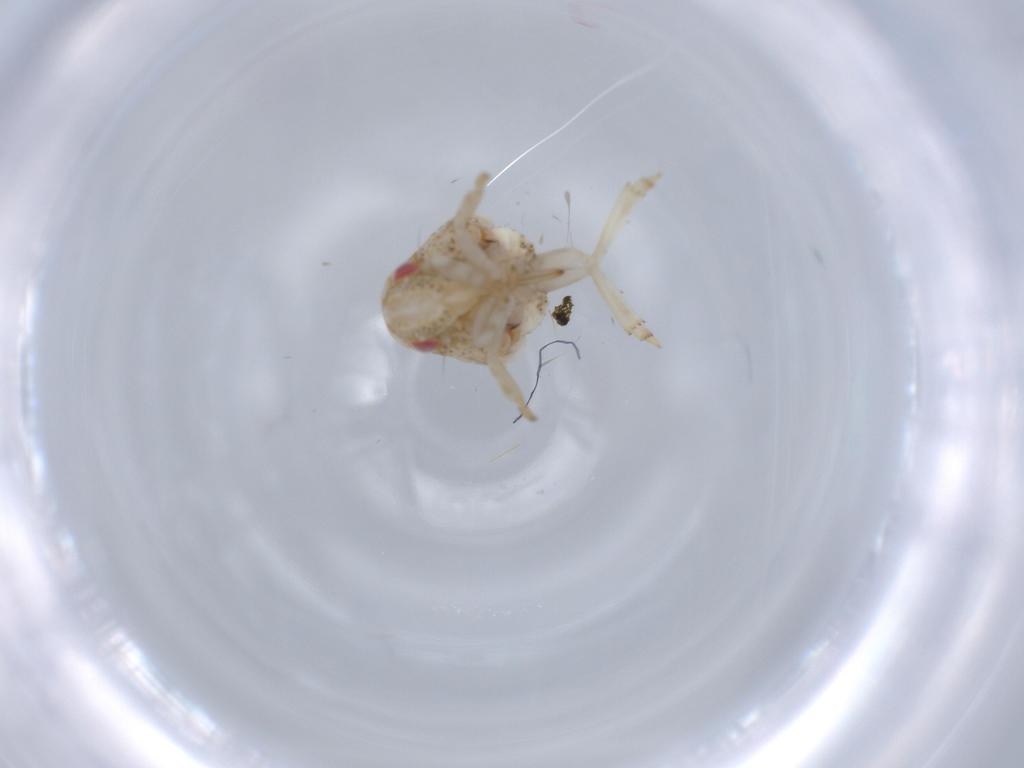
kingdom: Animalia
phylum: Arthropoda
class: Insecta
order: Hemiptera
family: Acanaloniidae
